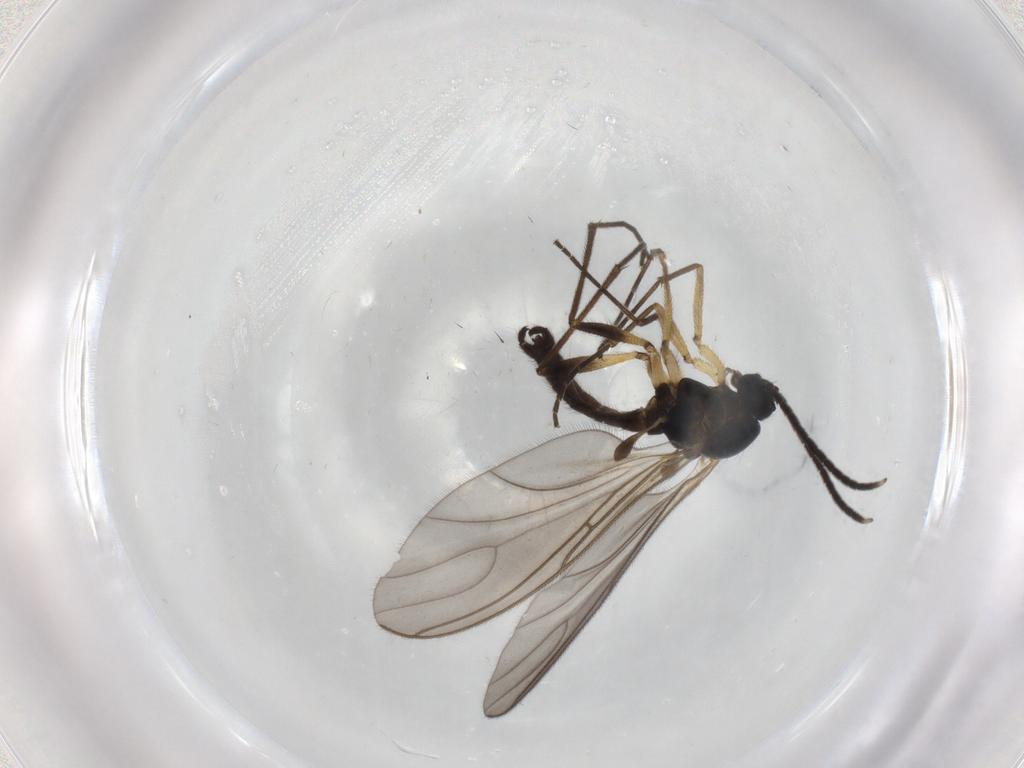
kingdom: Animalia
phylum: Arthropoda
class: Insecta
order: Diptera
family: Sciaridae
